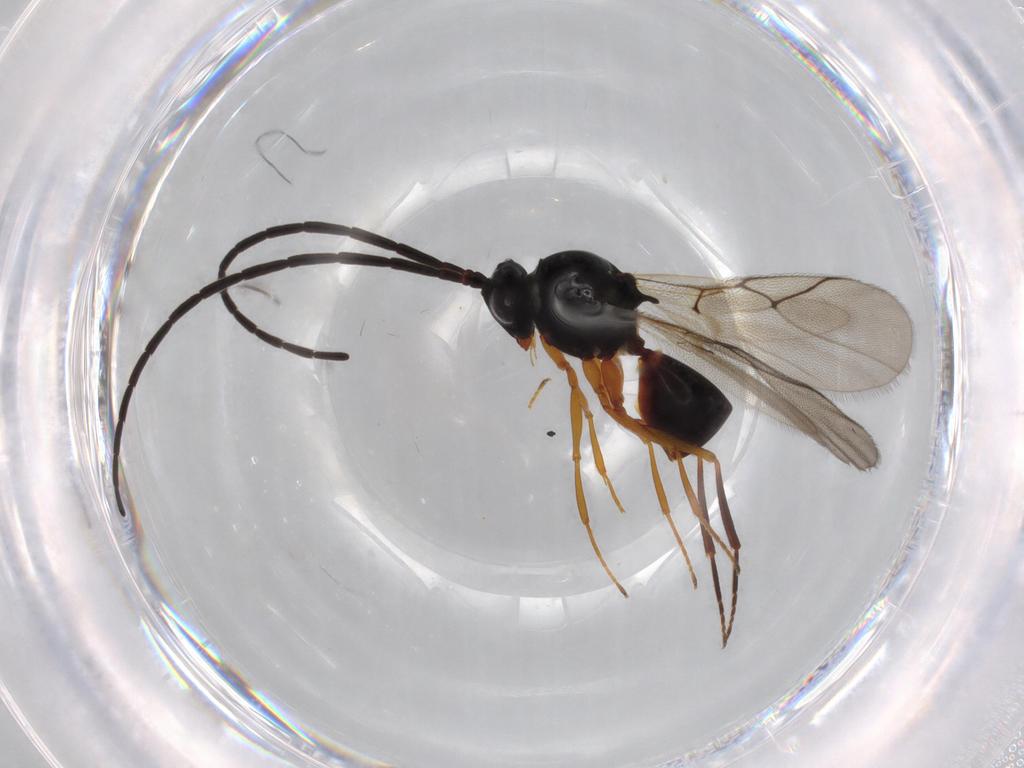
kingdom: Animalia
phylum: Arthropoda
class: Insecta
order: Hymenoptera
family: Figitidae
